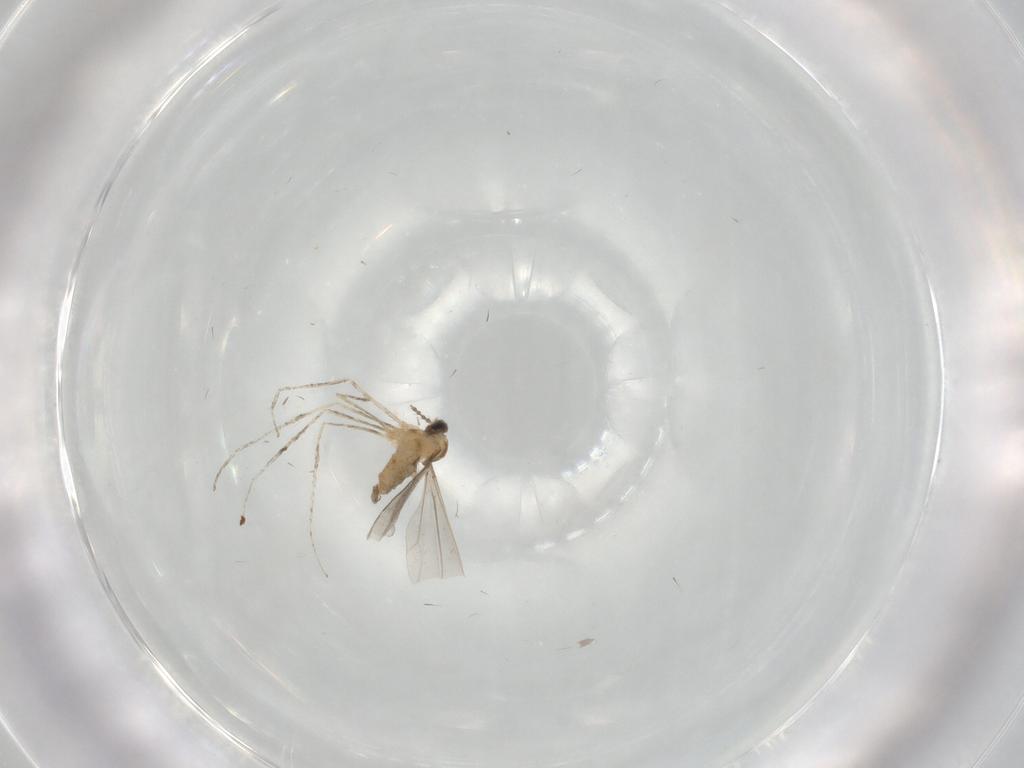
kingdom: Animalia
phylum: Arthropoda
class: Insecta
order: Diptera
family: Cecidomyiidae
